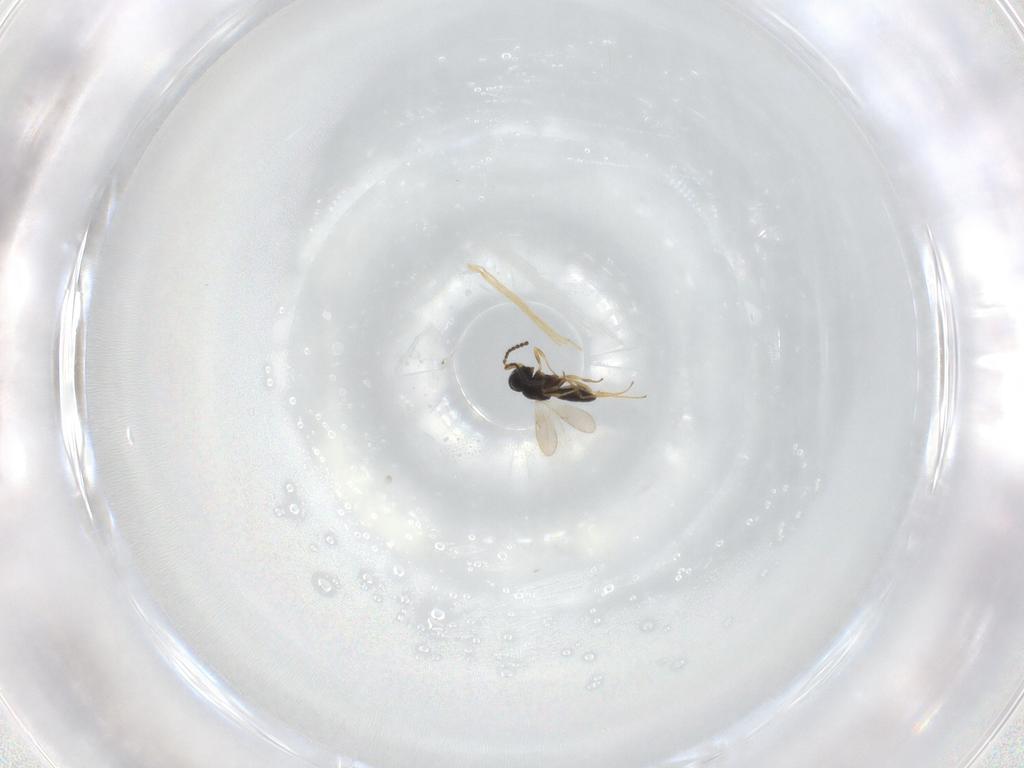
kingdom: Animalia
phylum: Arthropoda
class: Insecta
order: Hymenoptera
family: Scelionidae
